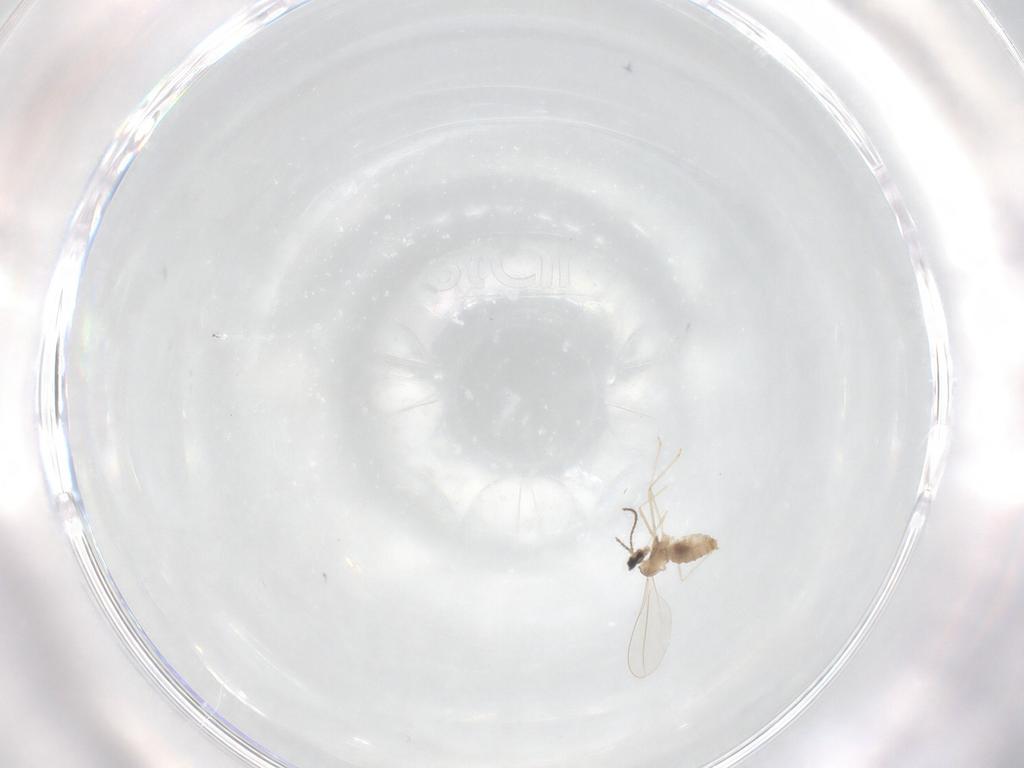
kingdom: Animalia
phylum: Arthropoda
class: Insecta
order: Diptera
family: Cecidomyiidae
